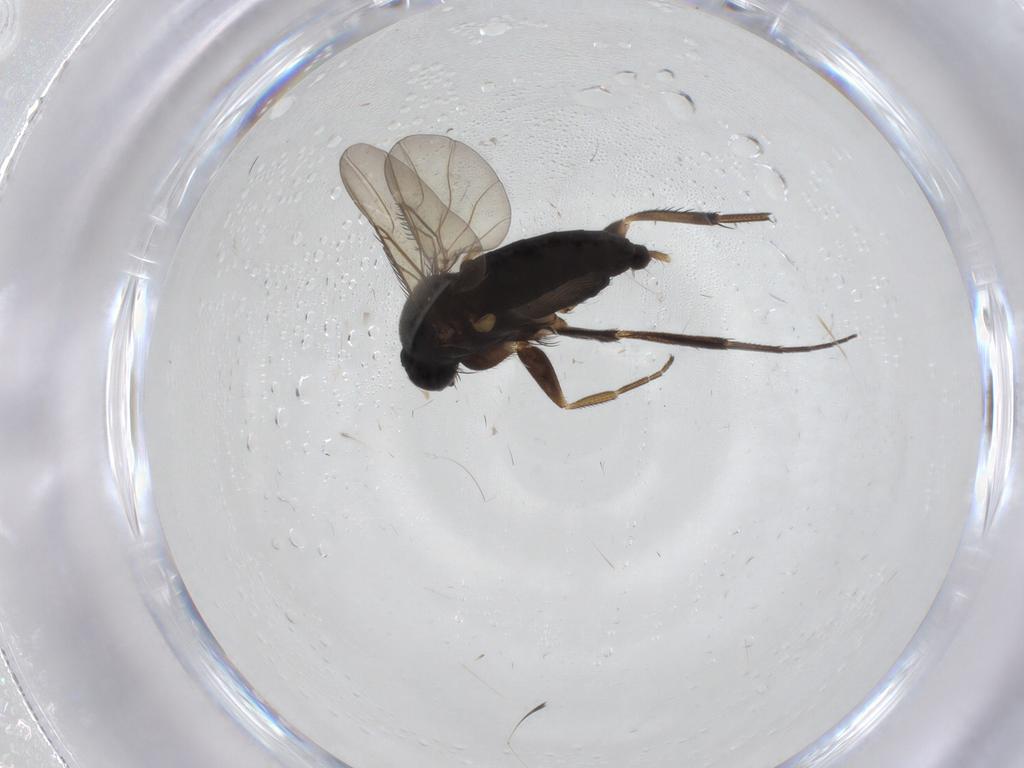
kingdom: Animalia
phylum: Arthropoda
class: Insecta
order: Diptera
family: Phoridae
